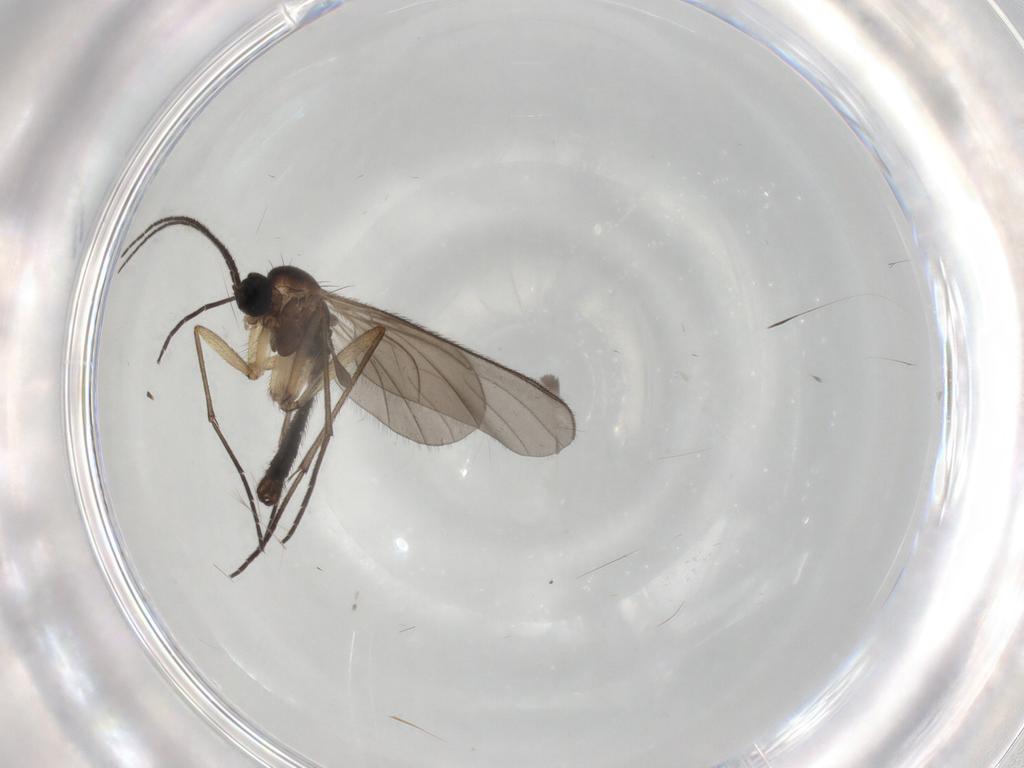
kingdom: Animalia
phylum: Arthropoda
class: Insecta
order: Diptera
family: Sciaridae
